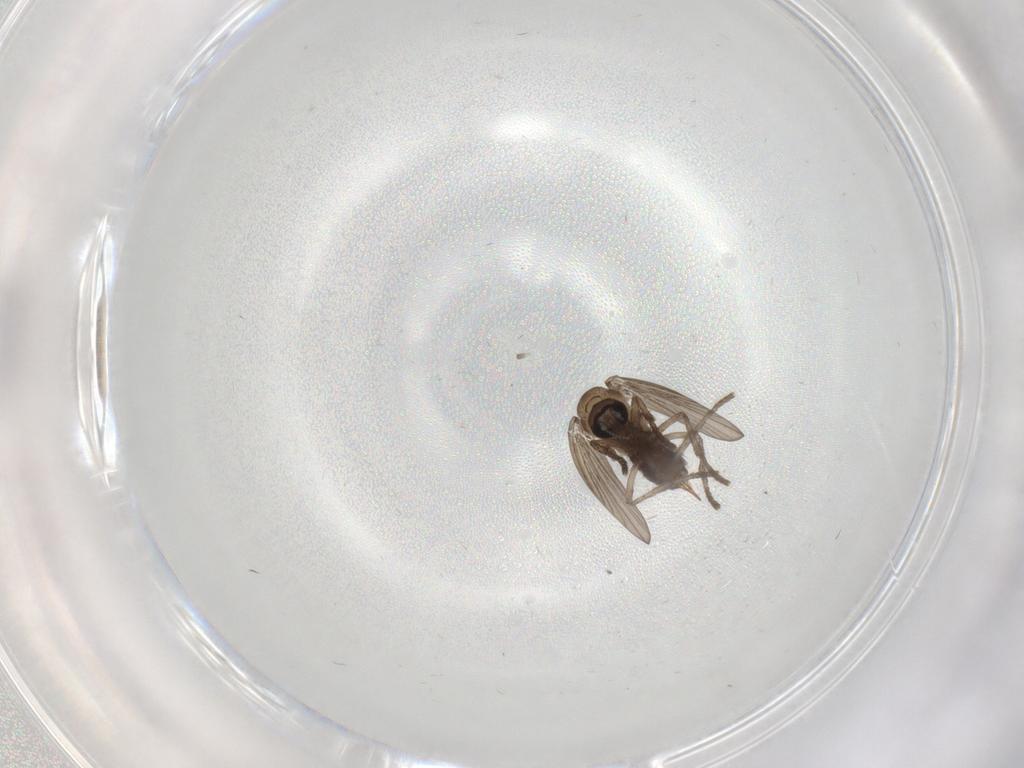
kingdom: Animalia
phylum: Arthropoda
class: Insecta
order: Diptera
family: Psychodidae
